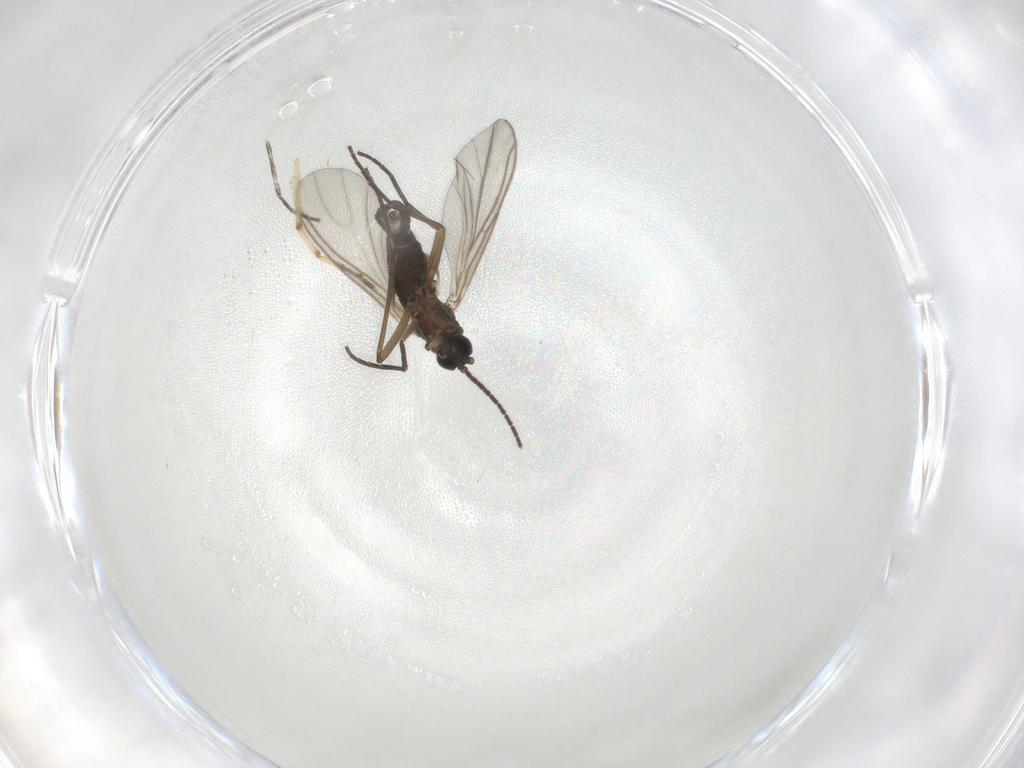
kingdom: Animalia
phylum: Arthropoda
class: Insecta
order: Diptera
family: Sciaridae
